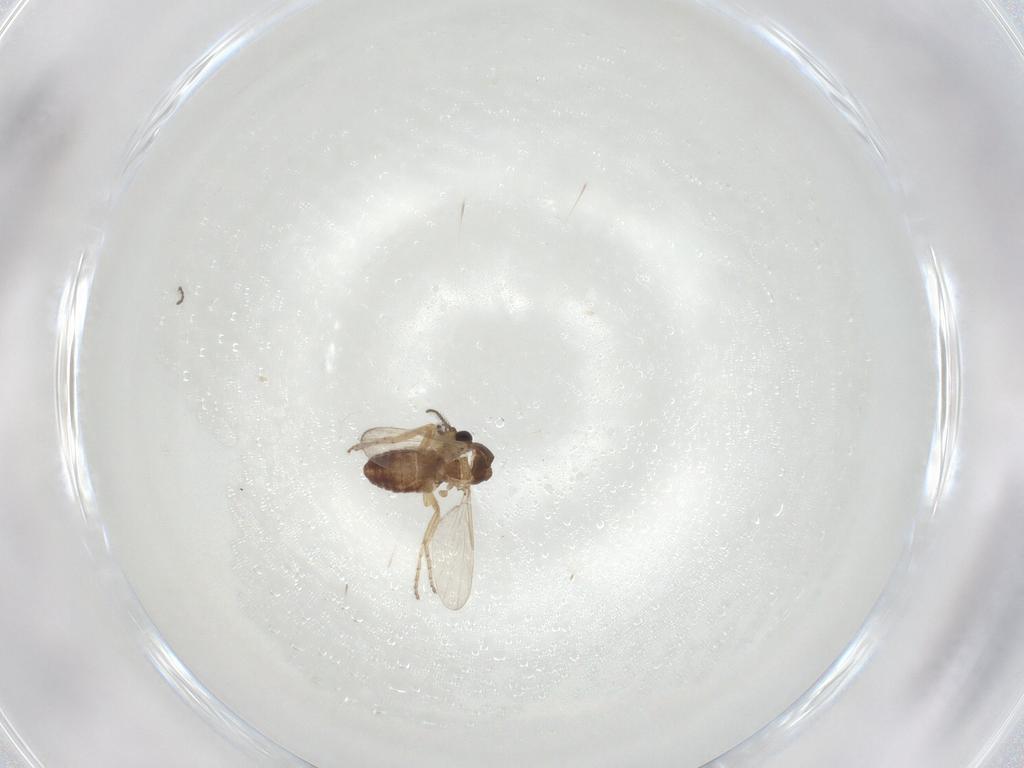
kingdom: Animalia
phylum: Arthropoda
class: Insecta
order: Diptera
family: Ceratopogonidae
